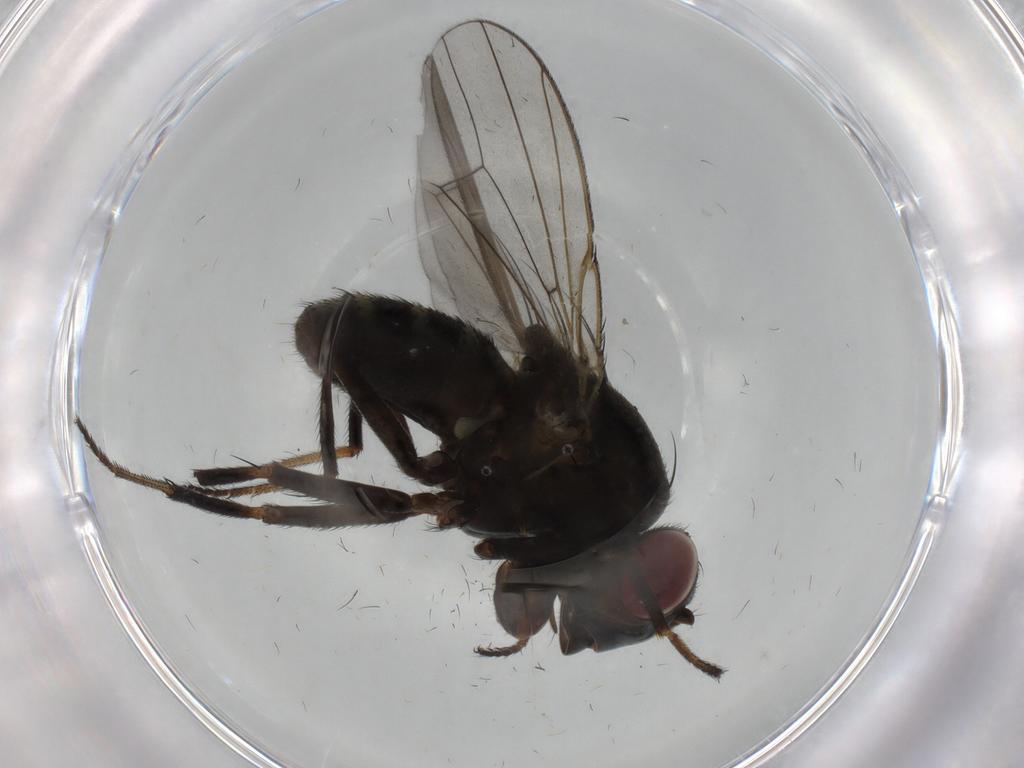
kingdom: Animalia
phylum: Arthropoda
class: Insecta
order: Diptera
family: Ephydridae
